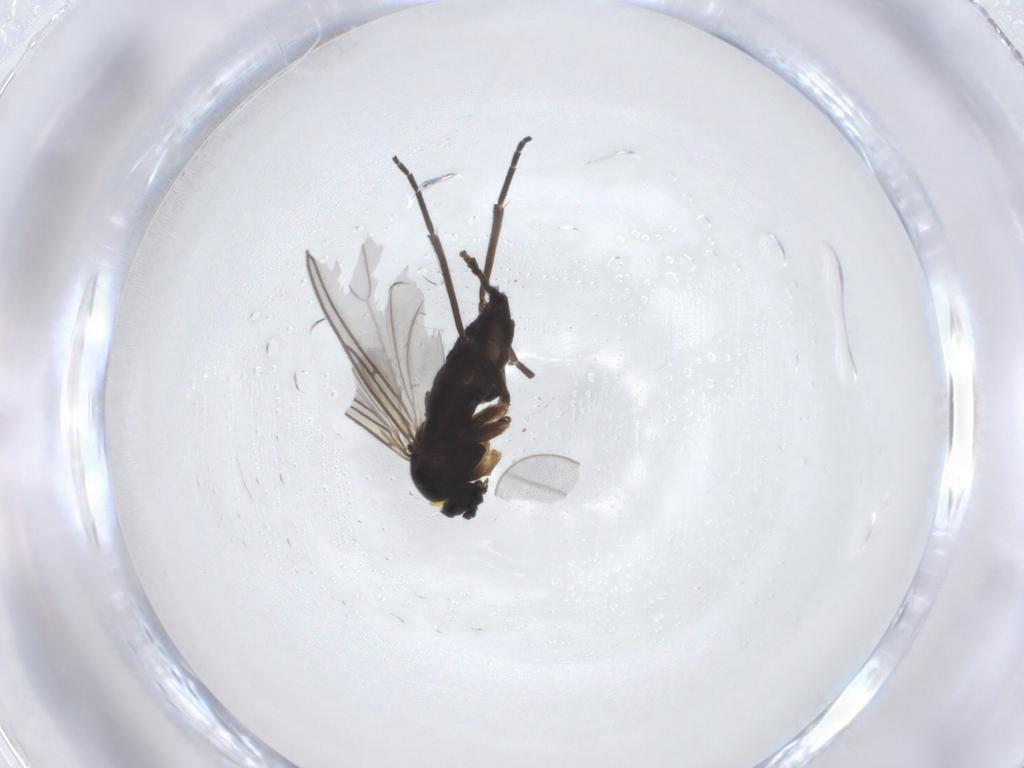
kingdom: Animalia
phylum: Arthropoda
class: Insecta
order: Diptera
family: Sciaridae
